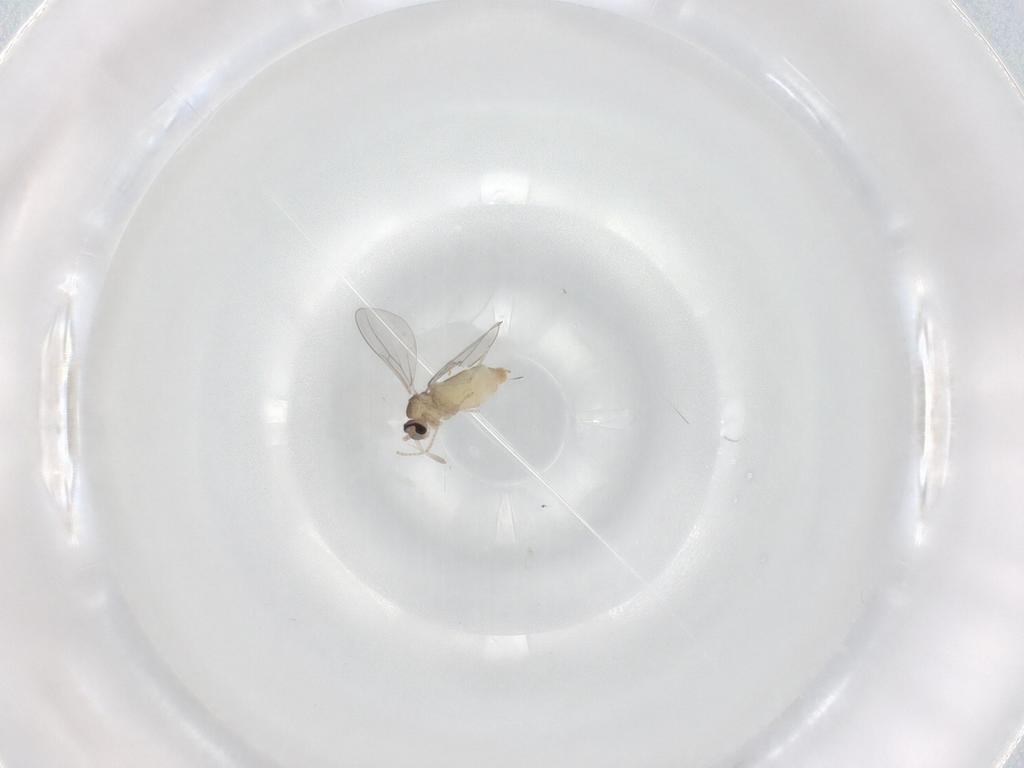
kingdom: Animalia
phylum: Arthropoda
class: Insecta
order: Diptera
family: Cecidomyiidae
